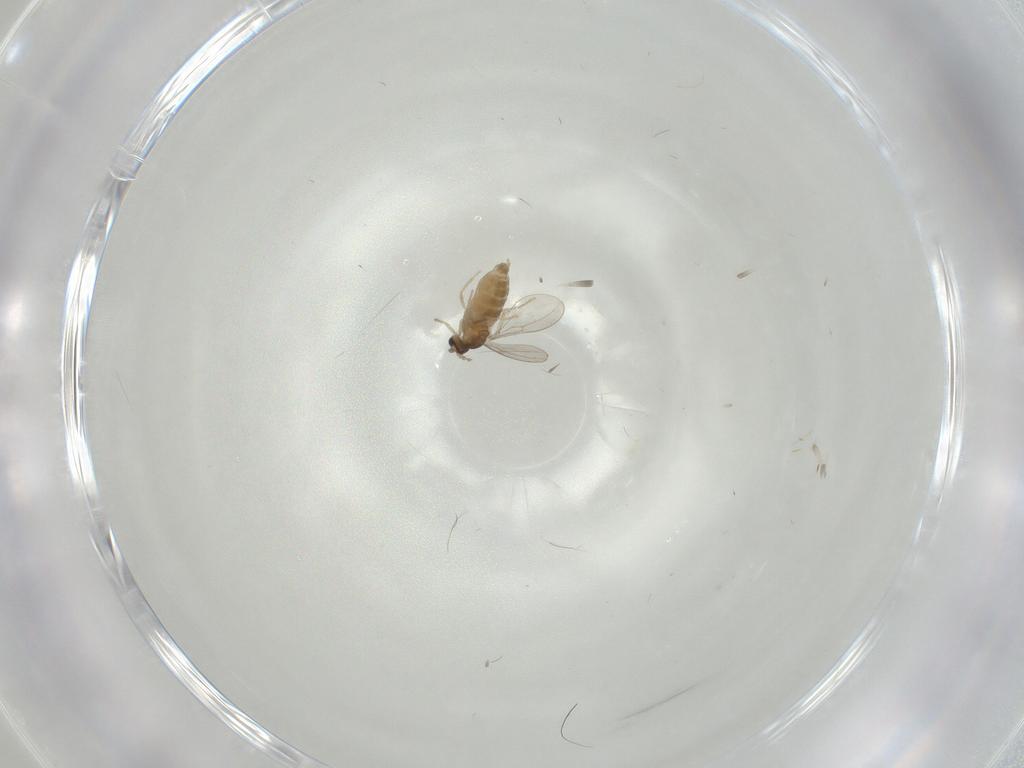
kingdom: Animalia
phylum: Arthropoda
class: Insecta
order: Diptera
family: Cecidomyiidae
